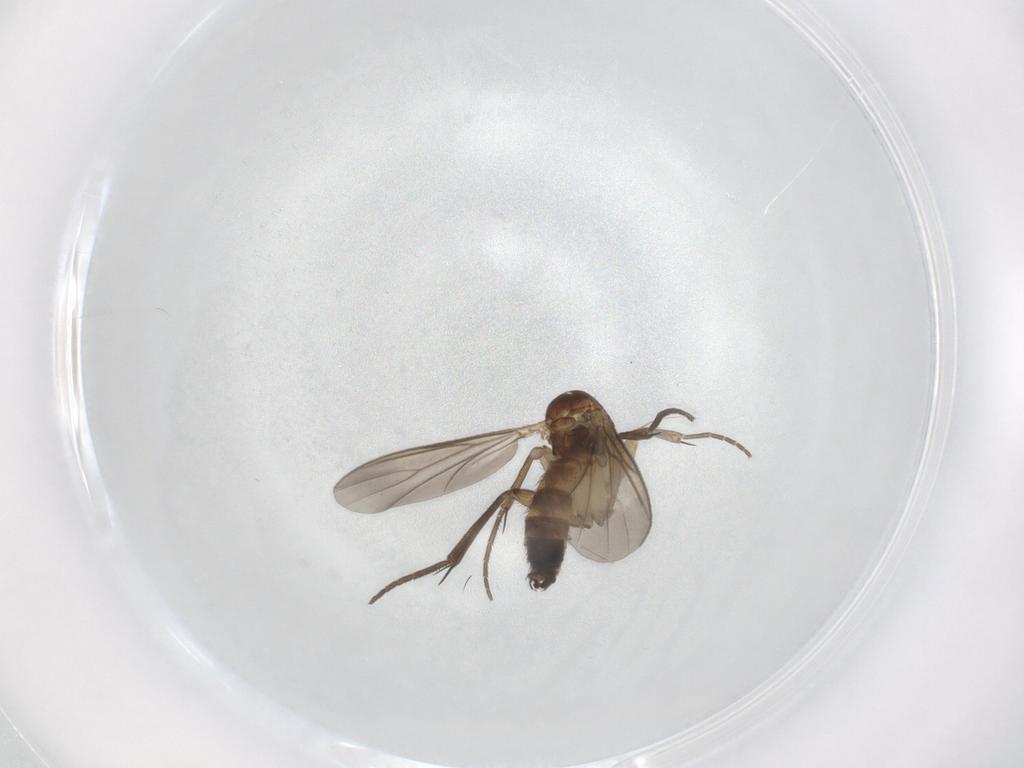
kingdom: Animalia
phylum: Arthropoda
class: Insecta
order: Diptera
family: Mycetophilidae
